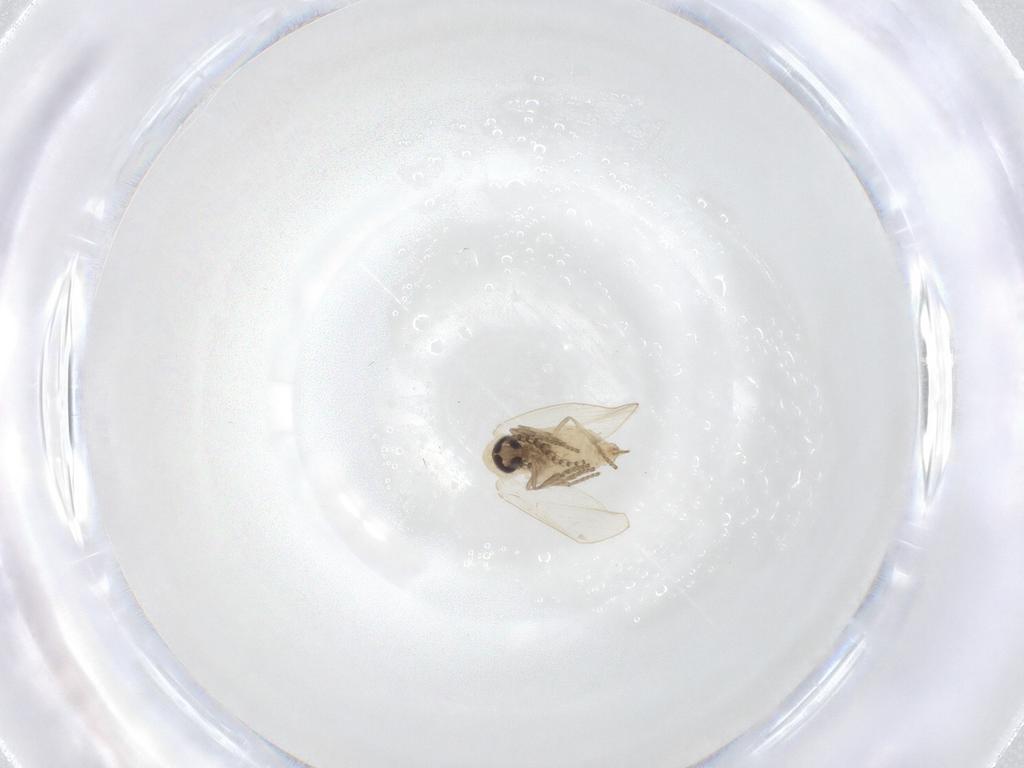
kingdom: Animalia
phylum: Arthropoda
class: Insecta
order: Diptera
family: Psychodidae
